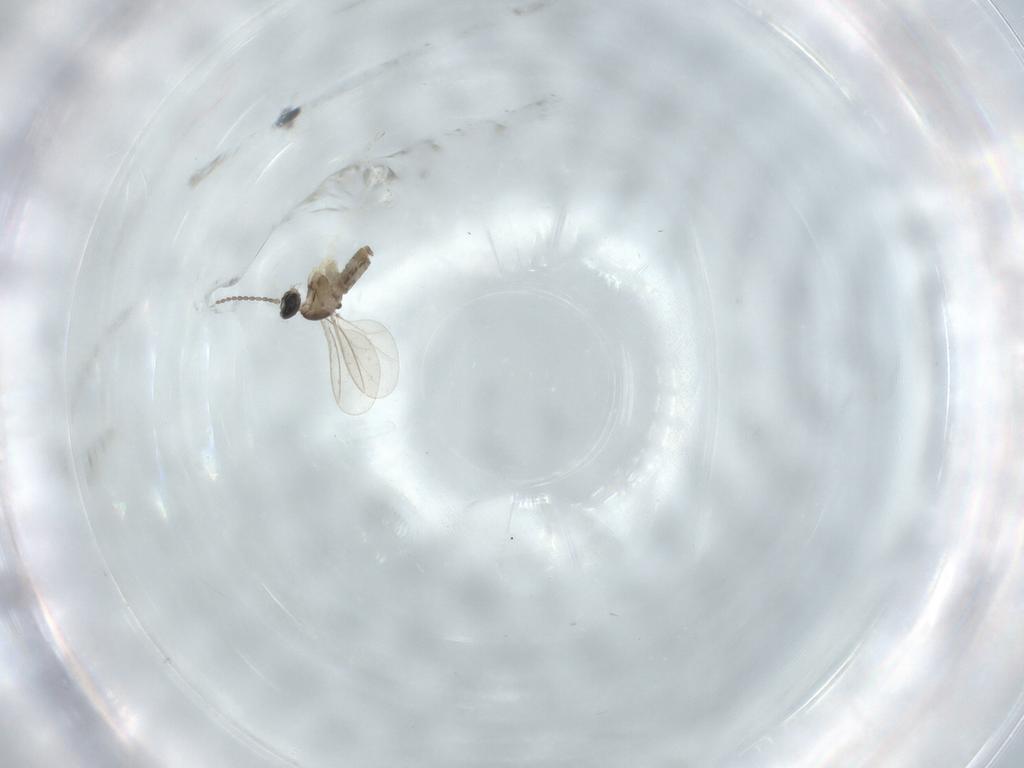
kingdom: Animalia
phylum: Arthropoda
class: Insecta
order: Diptera
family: Cecidomyiidae
